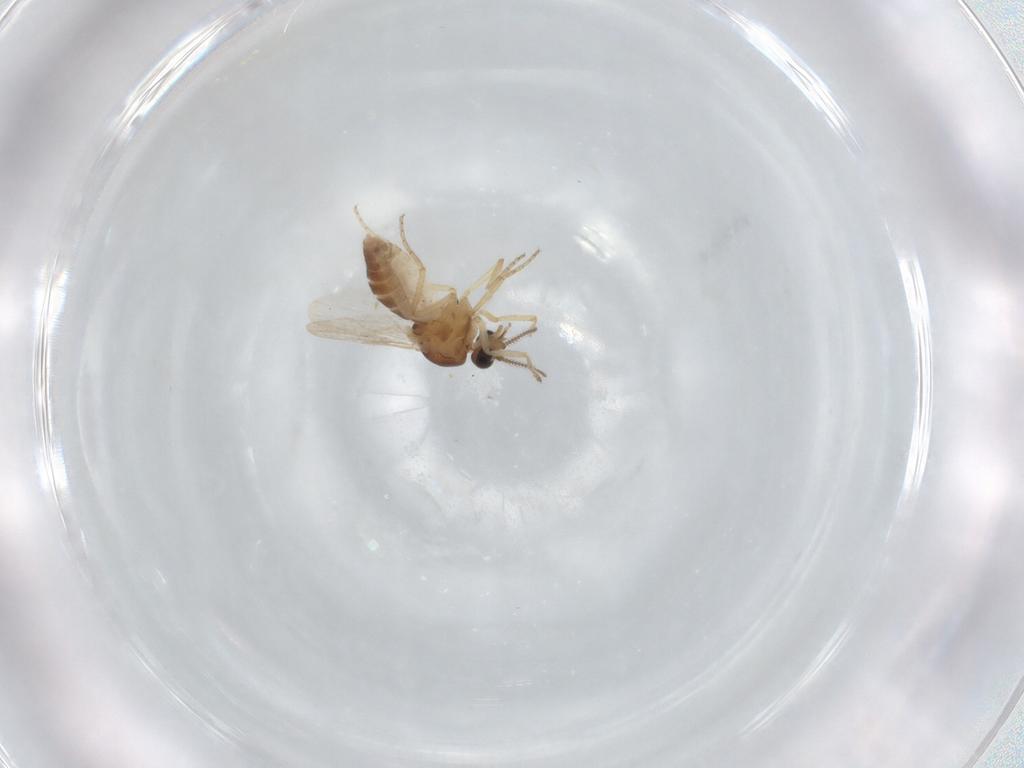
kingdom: Animalia
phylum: Arthropoda
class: Insecta
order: Diptera
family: Ceratopogonidae
